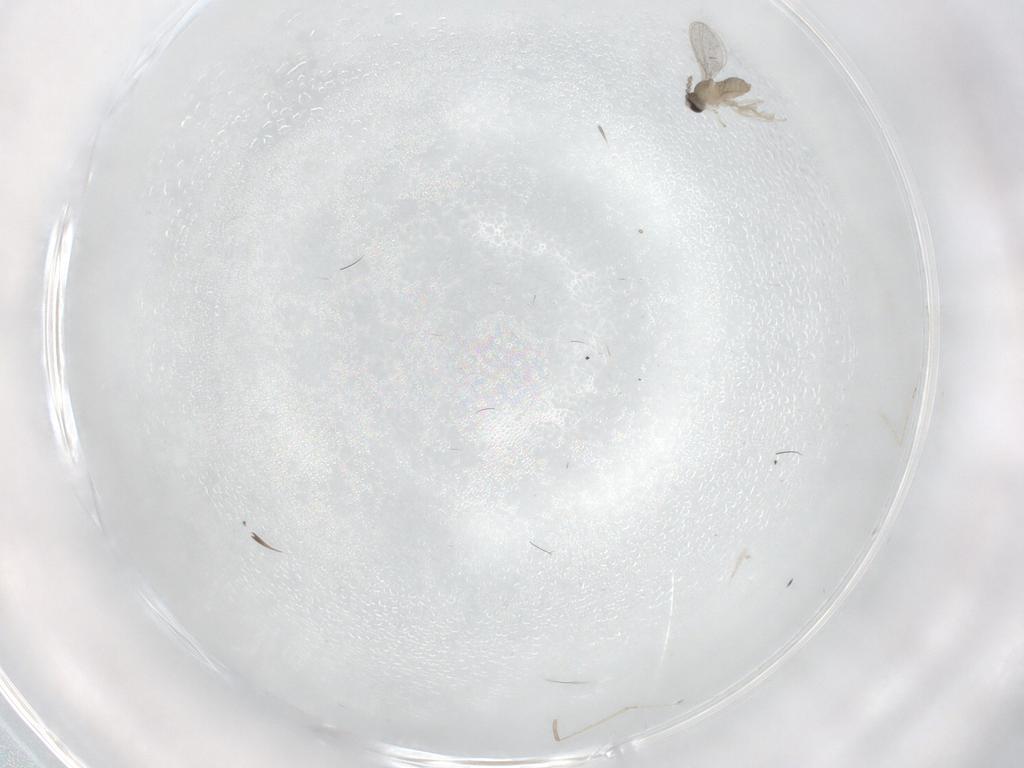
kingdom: Animalia
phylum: Arthropoda
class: Insecta
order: Diptera
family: Cecidomyiidae
